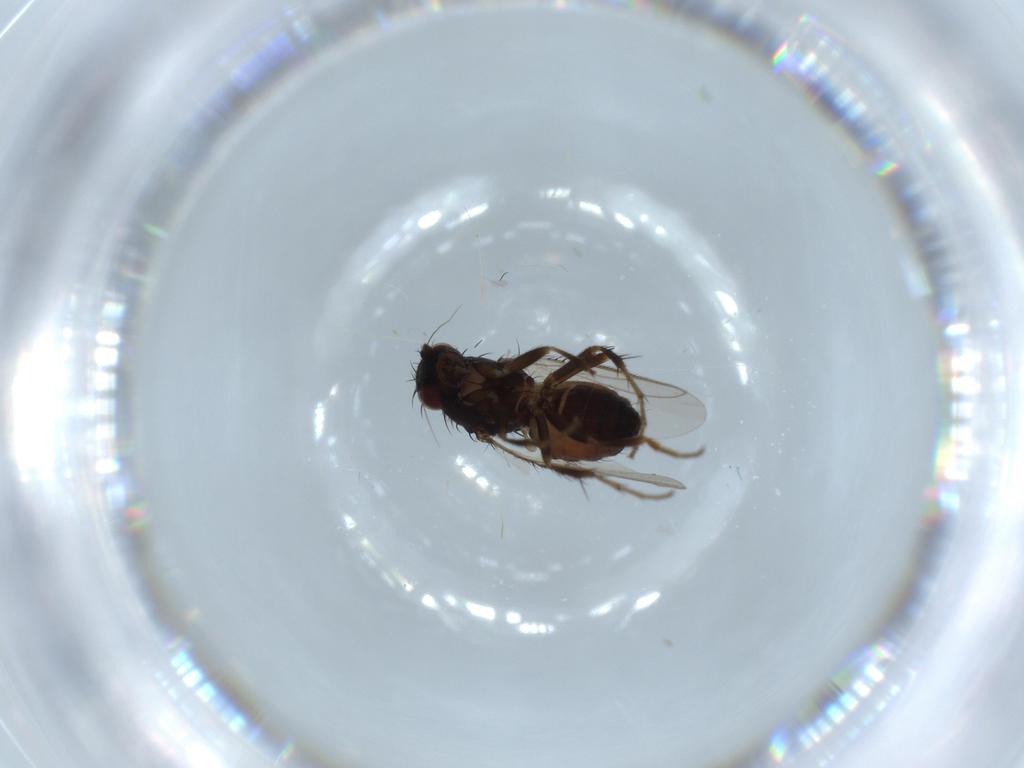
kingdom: Animalia
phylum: Arthropoda
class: Insecta
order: Diptera
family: Sphaeroceridae
